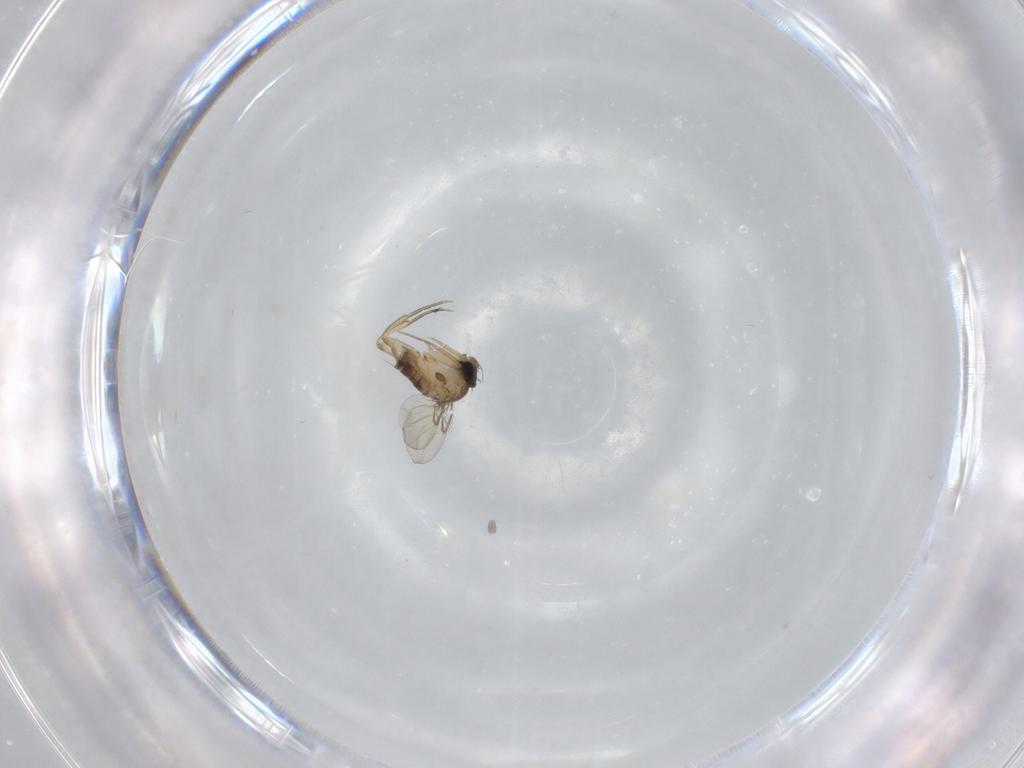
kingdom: Animalia
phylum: Arthropoda
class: Insecta
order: Diptera
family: Phoridae
